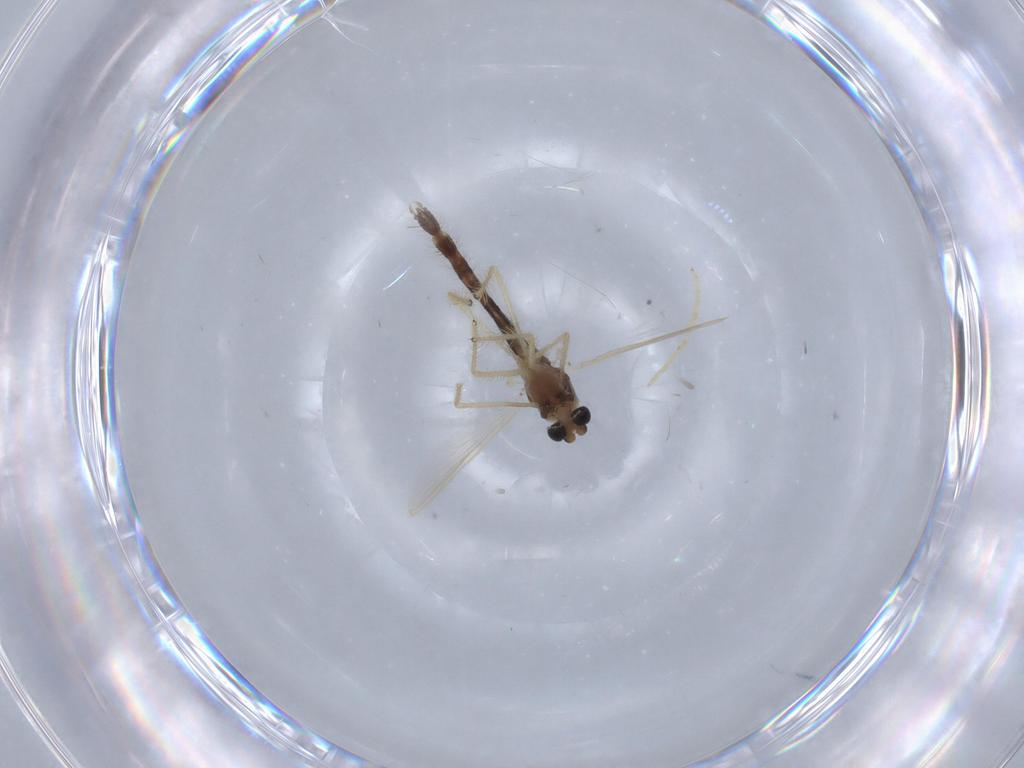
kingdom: Animalia
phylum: Arthropoda
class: Insecta
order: Diptera
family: Chironomidae
